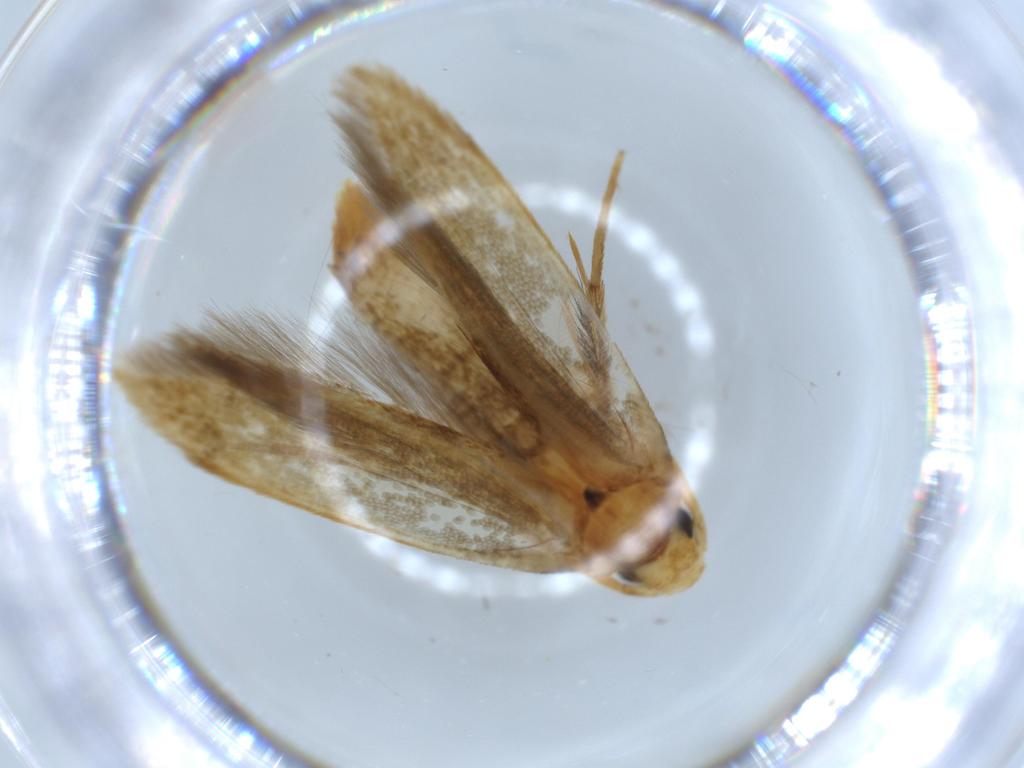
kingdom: Animalia
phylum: Arthropoda
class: Insecta
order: Lepidoptera
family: Tineidae
